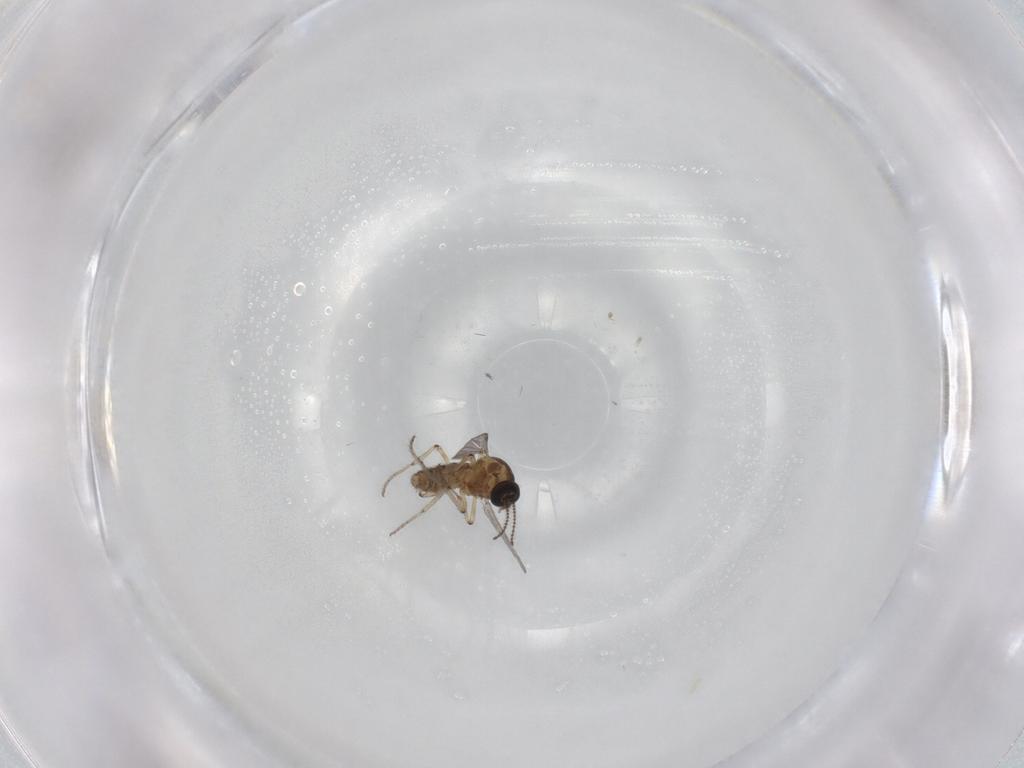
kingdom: Animalia
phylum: Arthropoda
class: Insecta
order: Diptera
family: Ceratopogonidae
